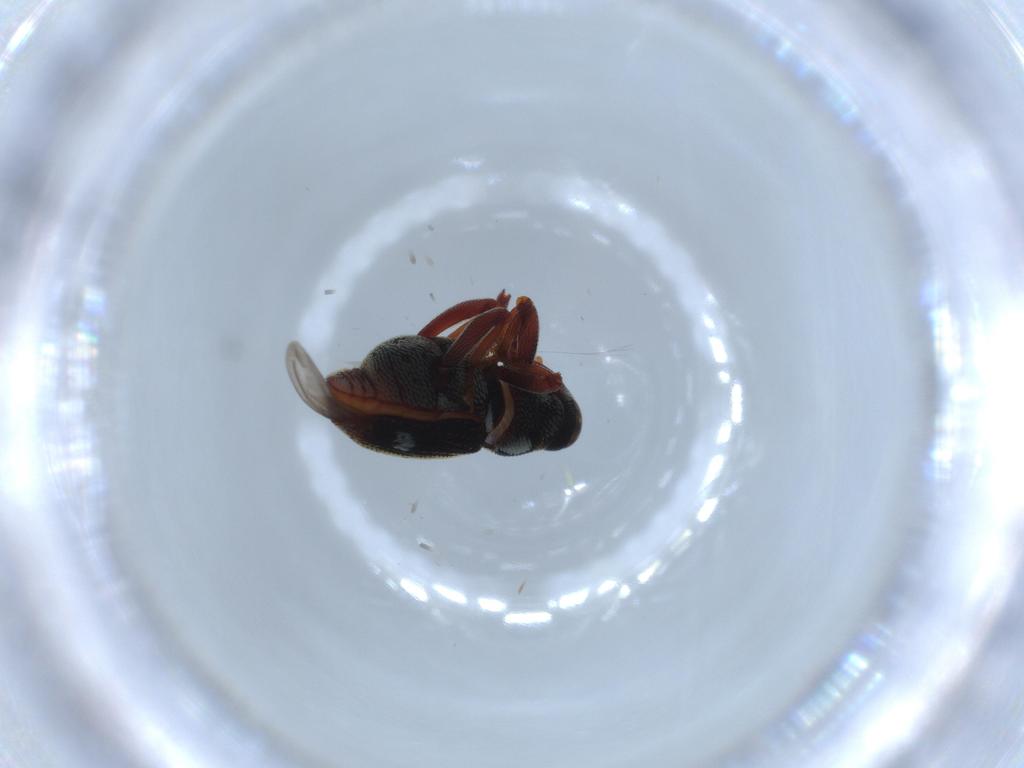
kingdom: Animalia
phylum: Arthropoda
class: Insecta
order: Coleoptera
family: Curculionidae
